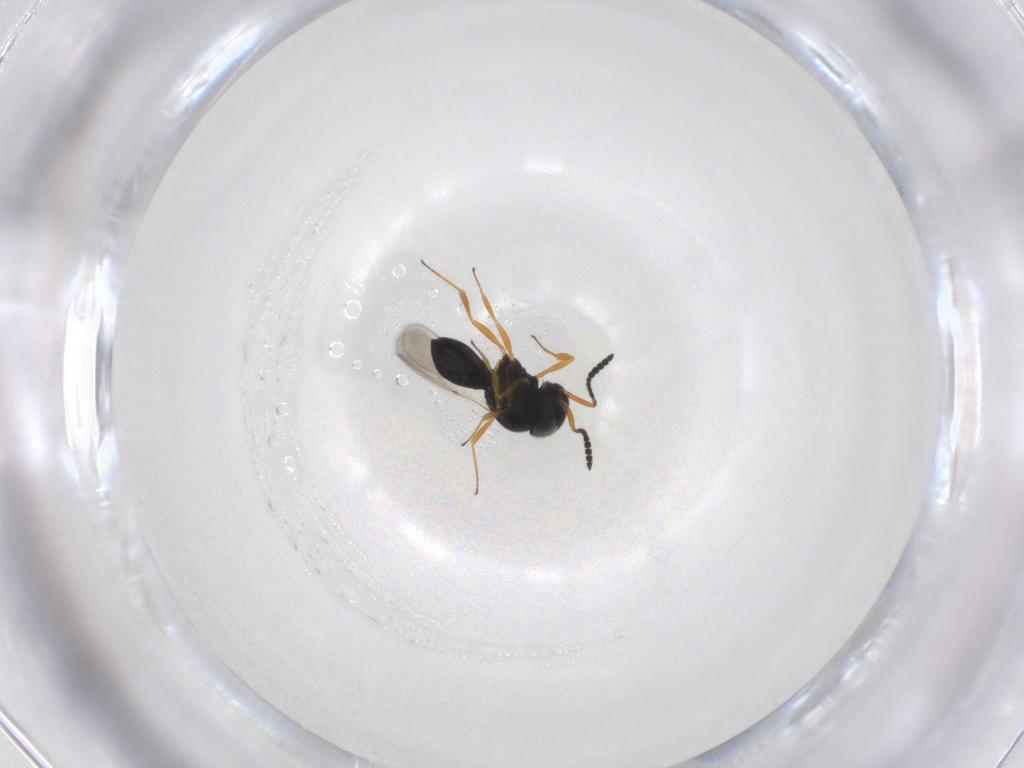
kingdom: Animalia
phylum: Arthropoda
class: Insecta
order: Hymenoptera
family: Scelionidae
